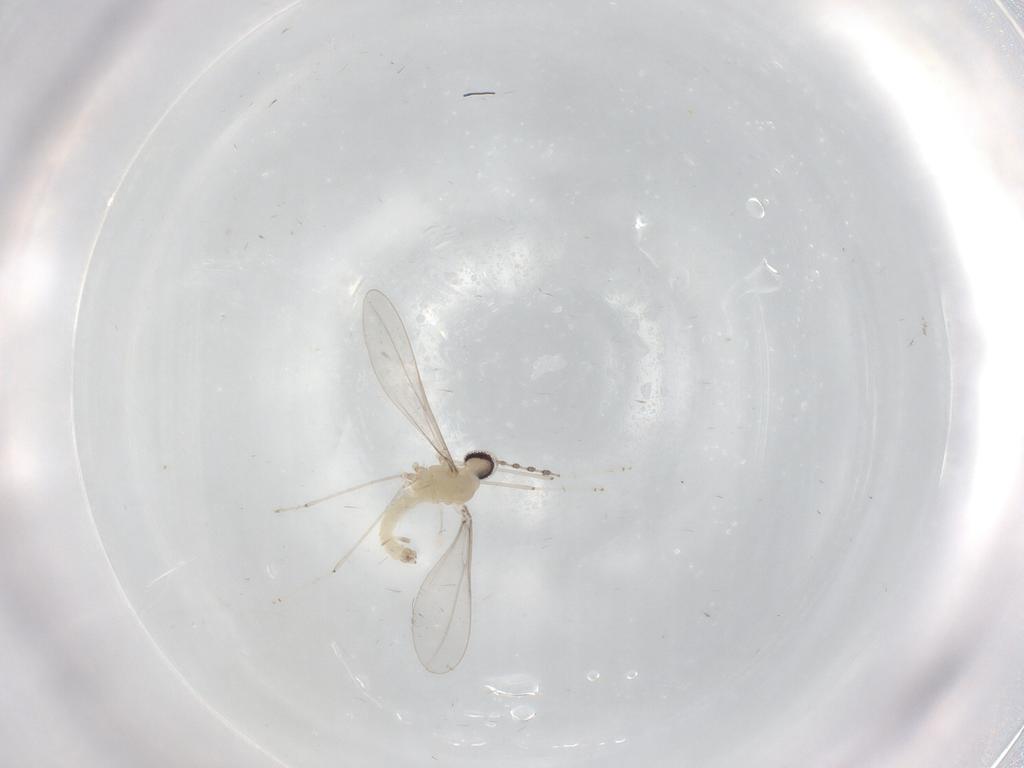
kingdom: Animalia
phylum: Arthropoda
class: Insecta
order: Diptera
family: Cecidomyiidae
